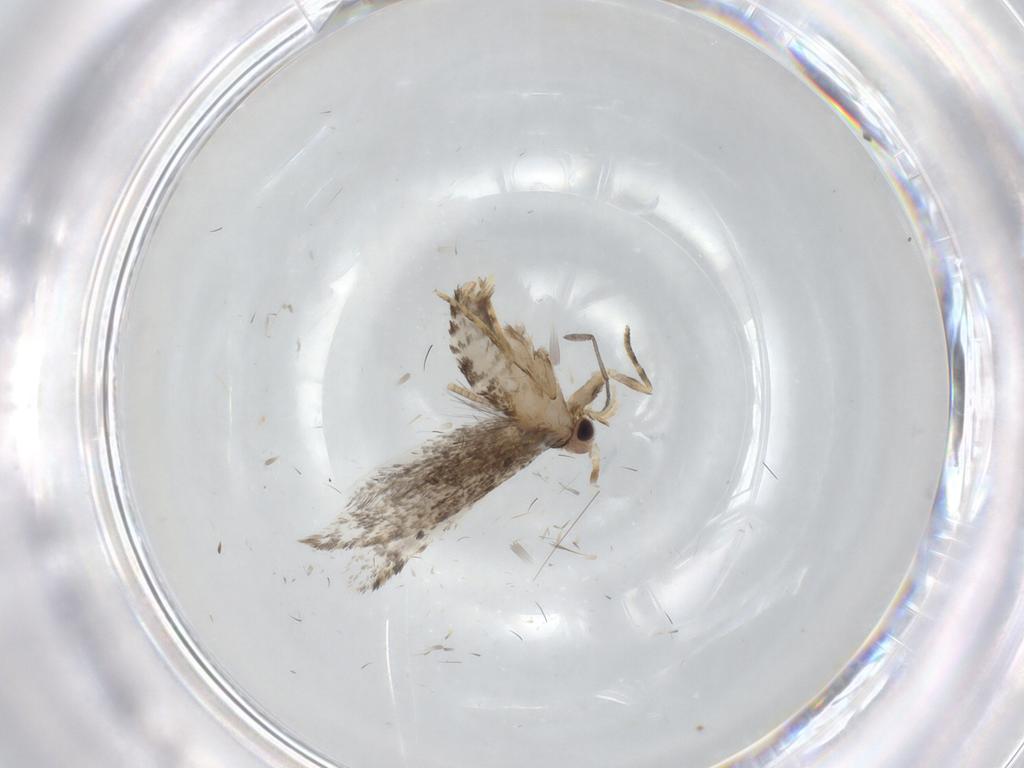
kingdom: Animalia
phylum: Arthropoda
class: Insecta
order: Lepidoptera
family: Tineidae
